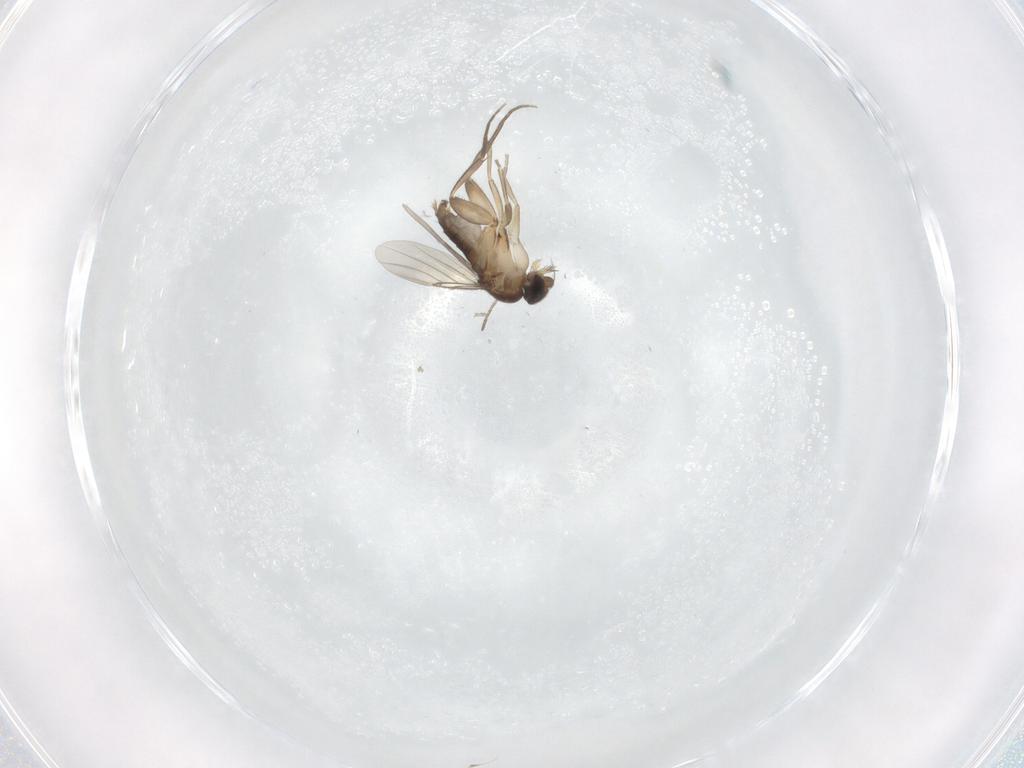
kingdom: Animalia
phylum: Arthropoda
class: Insecta
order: Diptera
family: Phoridae
